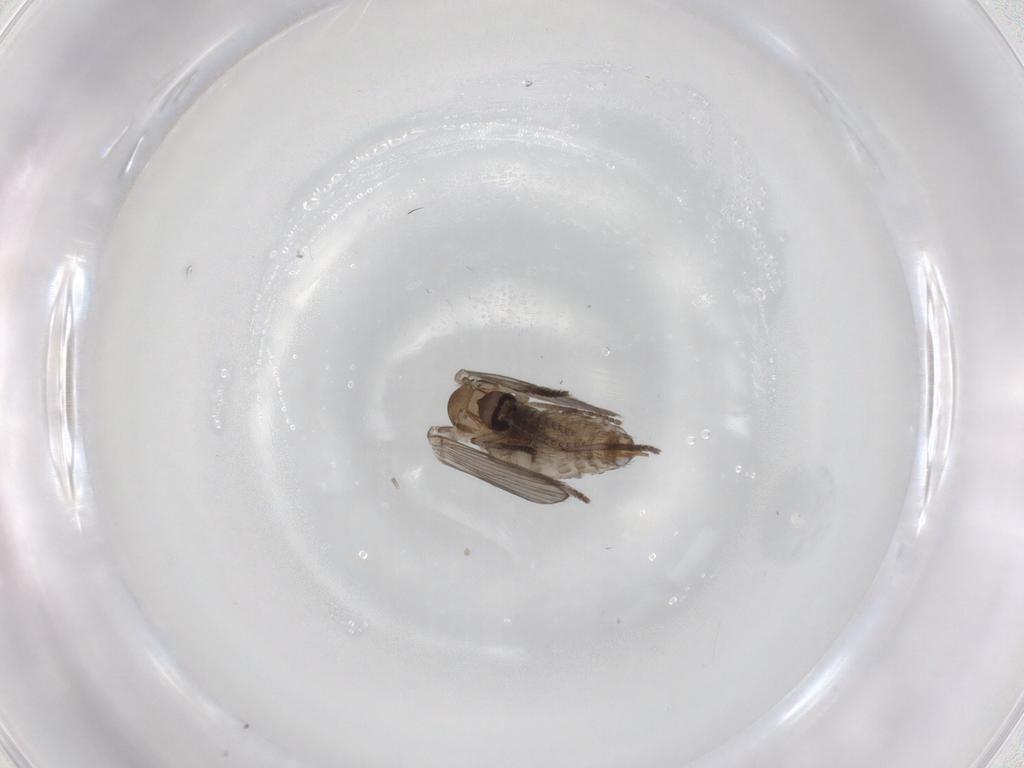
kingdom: Animalia
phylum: Arthropoda
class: Insecta
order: Diptera
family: Psychodidae
